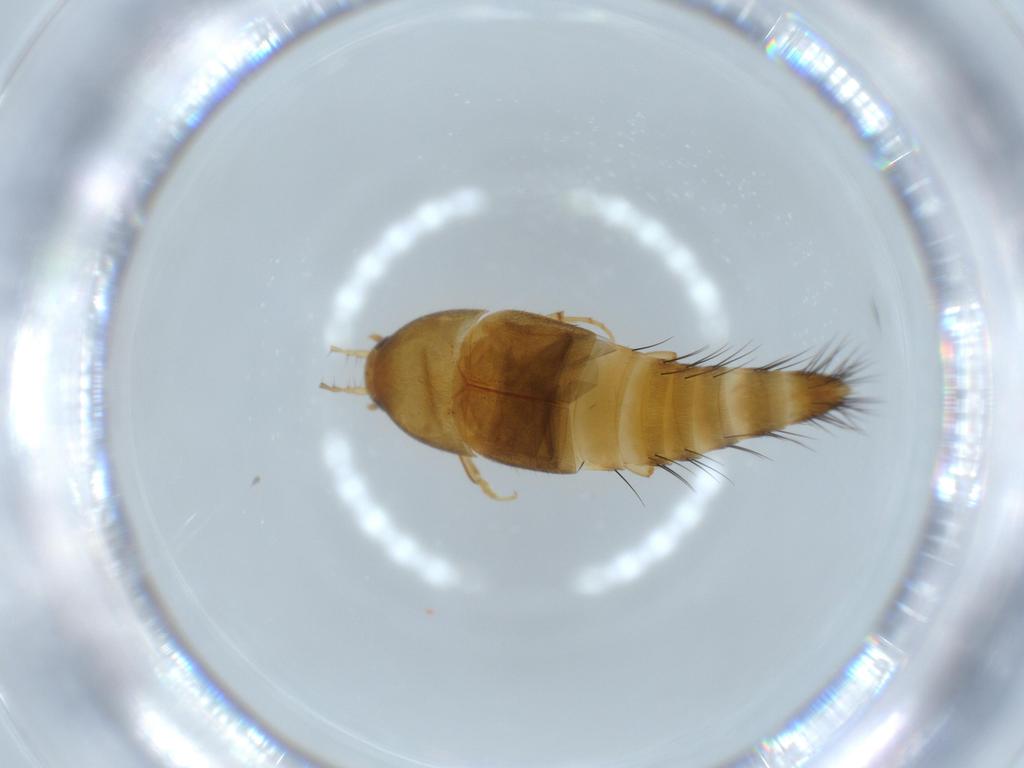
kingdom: Animalia
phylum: Arthropoda
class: Insecta
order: Coleoptera
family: Staphylinidae
